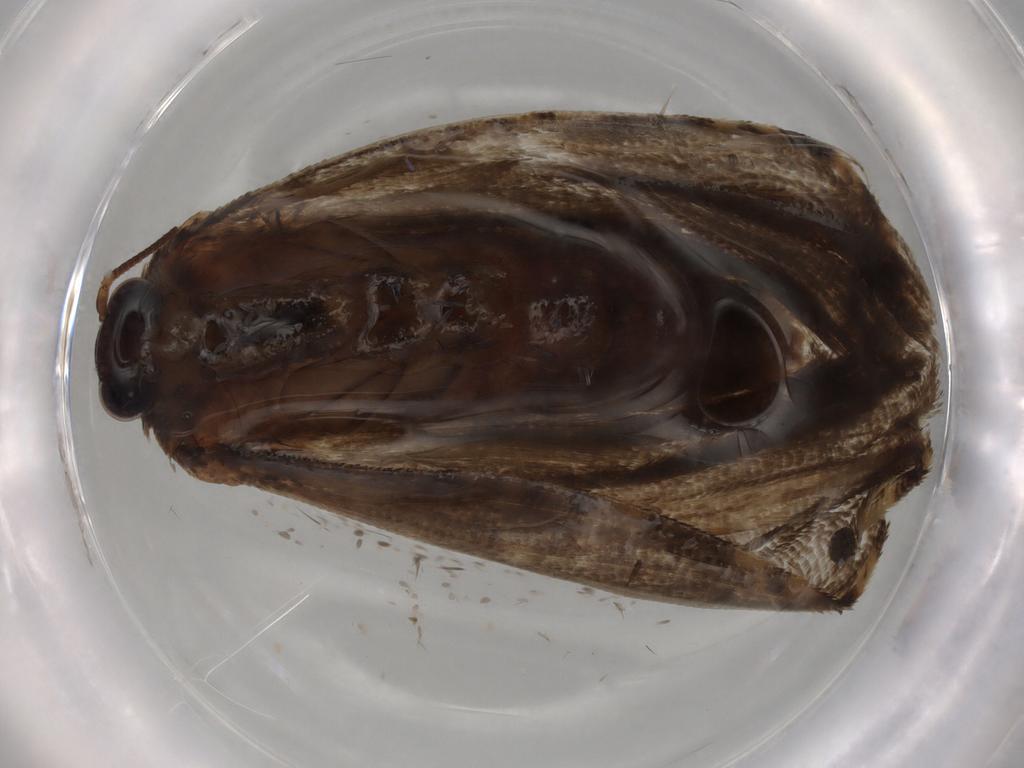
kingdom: Animalia
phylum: Arthropoda
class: Insecta
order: Lepidoptera
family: Tortricidae
